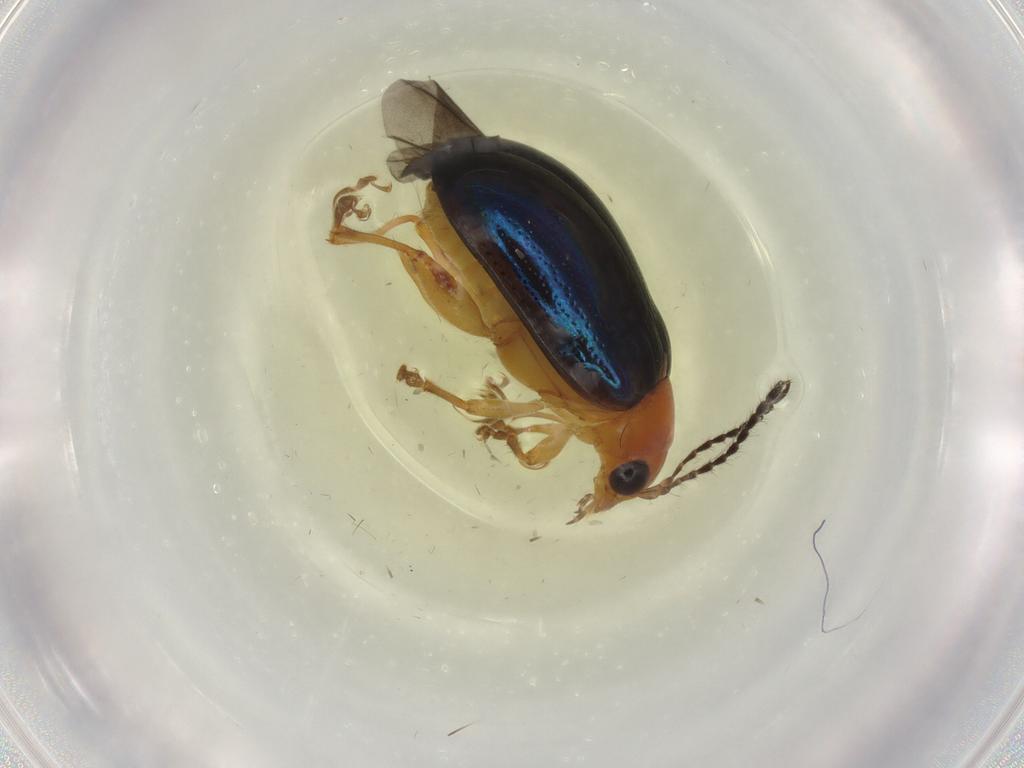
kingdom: Animalia
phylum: Arthropoda
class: Insecta
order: Coleoptera
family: Chrysomelidae
